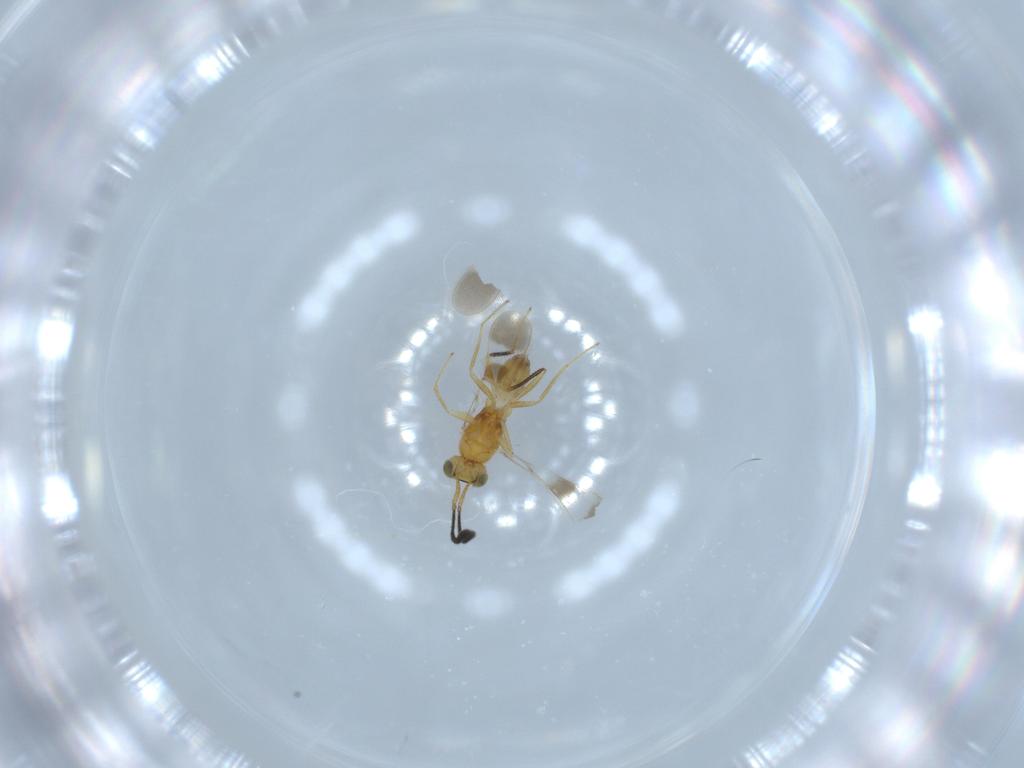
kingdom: Animalia
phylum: Arthropoda
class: Insecta
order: Hymenoptera
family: Mymaridae
